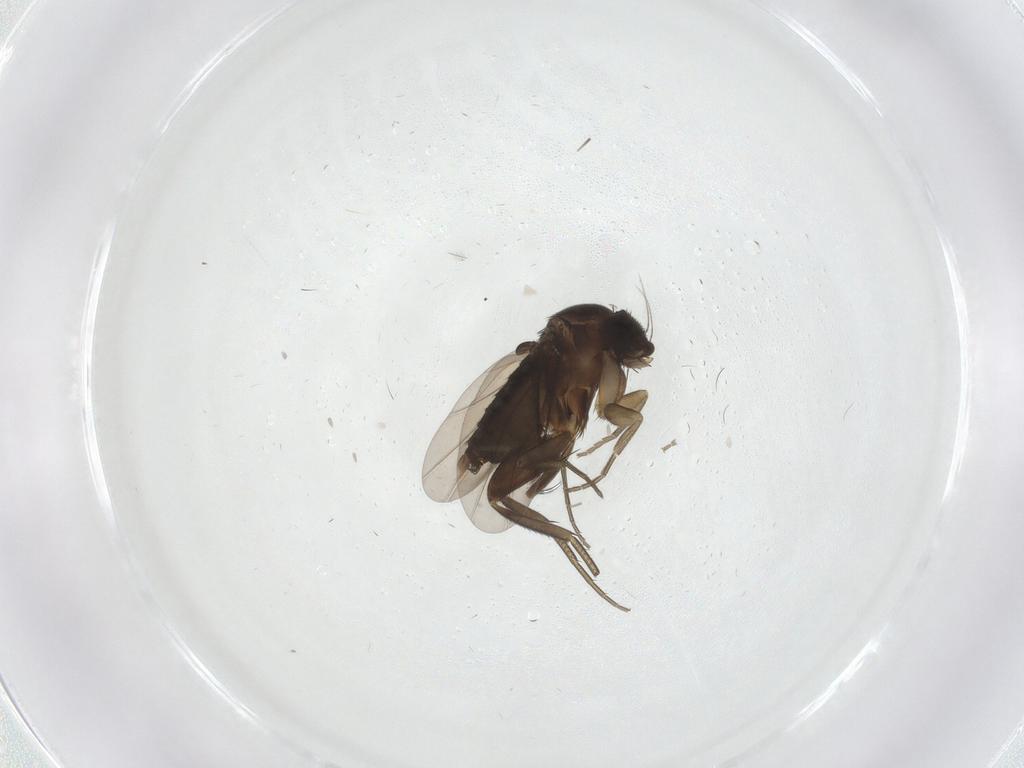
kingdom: Animalia
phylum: Arthropoda
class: Insecta
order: Diptera
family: Phoridae
